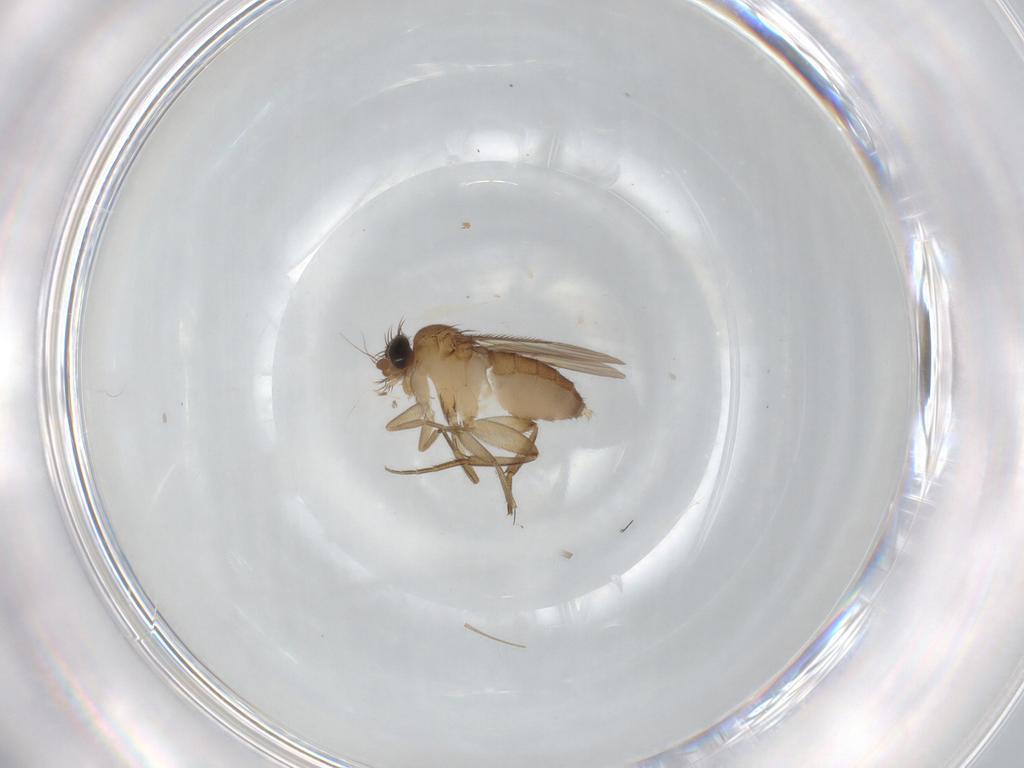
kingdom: Animalia
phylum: Arthropoda
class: Insecta
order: Diptera
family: Phoridae
